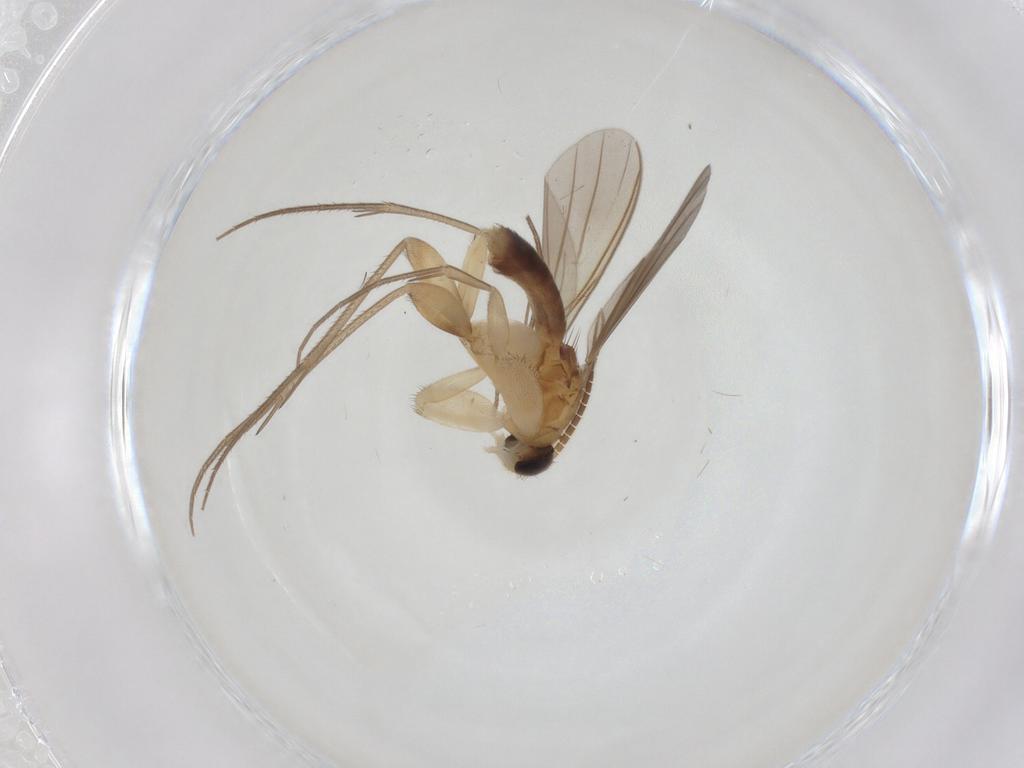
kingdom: Animalia
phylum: Arthropoda
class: Insecta
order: Diptera
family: Mycetophilidae
